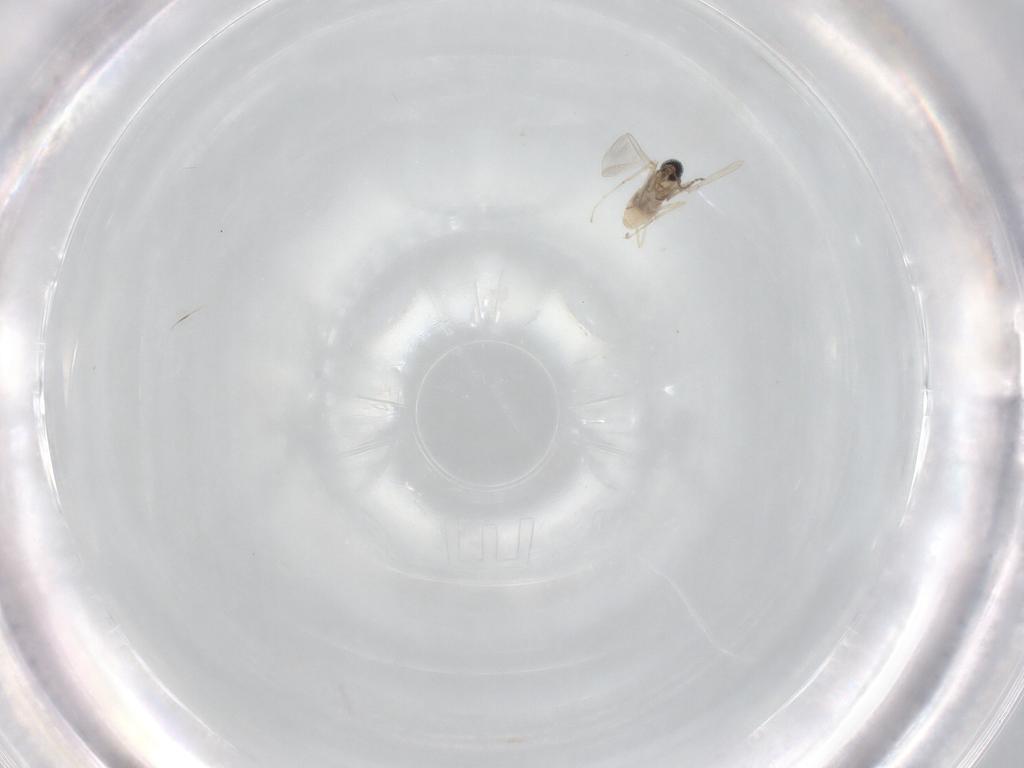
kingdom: Animalia
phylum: Arthropoda
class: Insecta
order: Diptera
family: Cecidomyiidae
